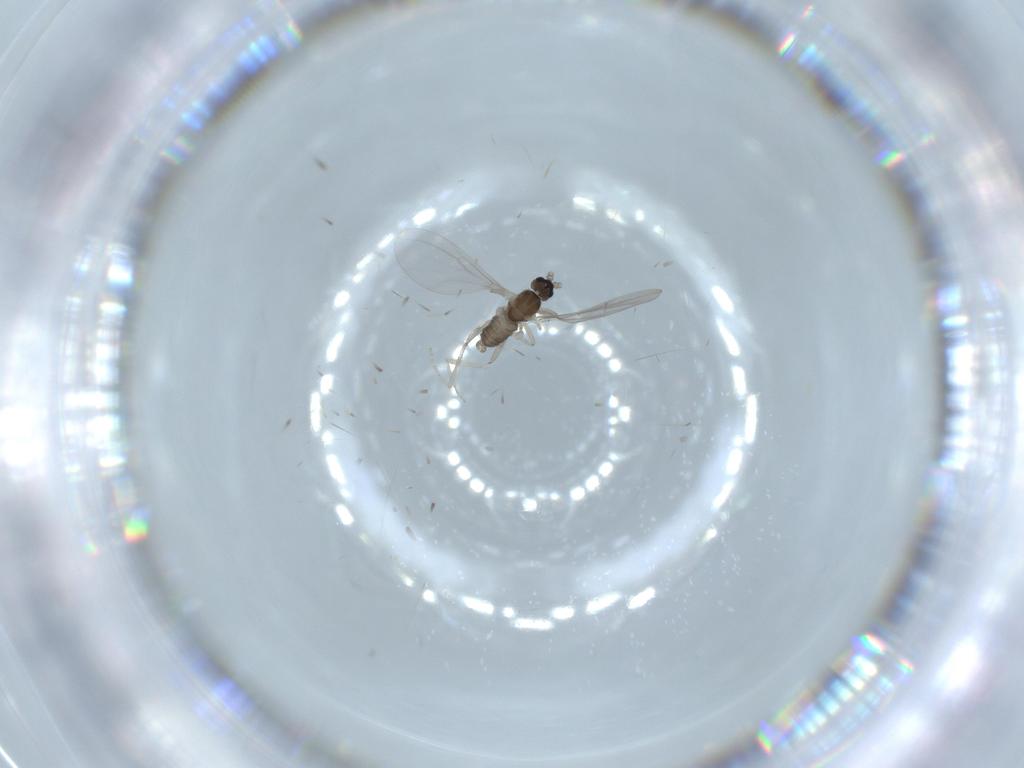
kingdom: Animalia
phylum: Arthropoda
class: Insecta
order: Diptera
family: Cecidomyiidae
